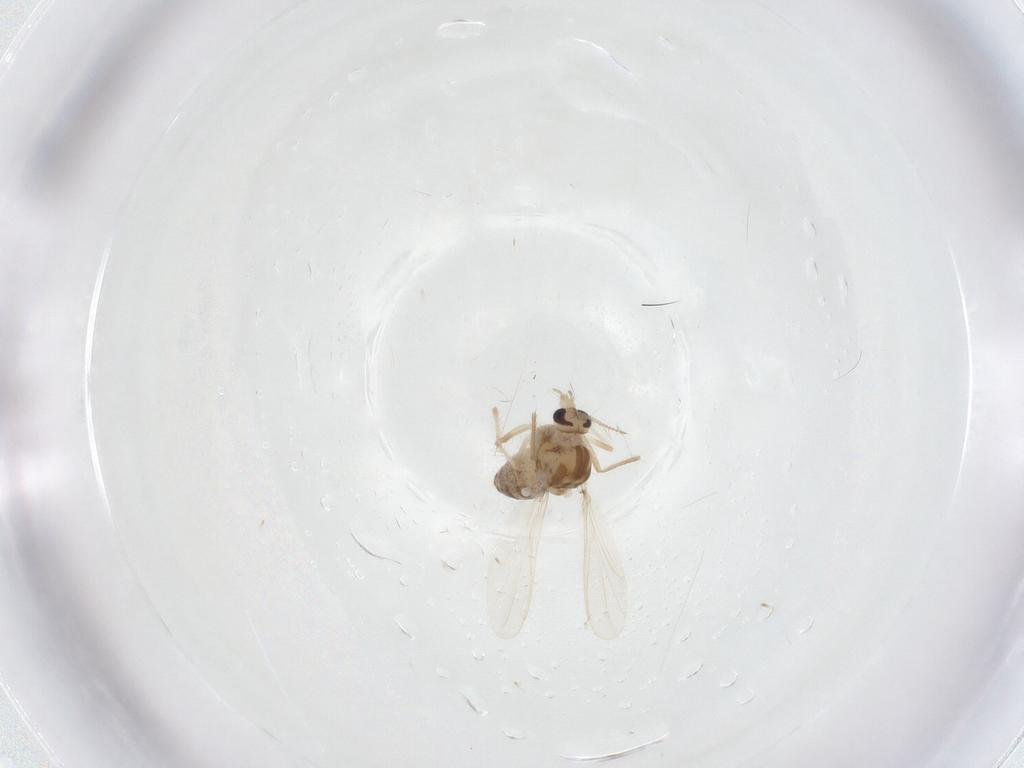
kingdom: Animalia
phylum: Arthropoda
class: Insecta
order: Diptera
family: Chironomidae
